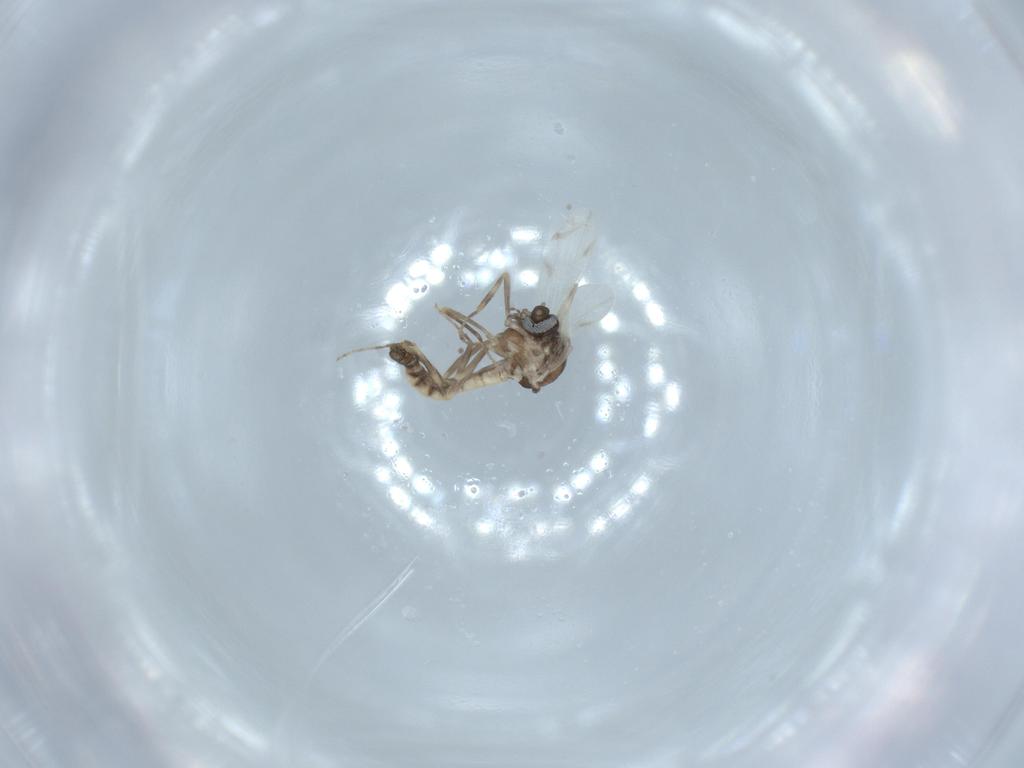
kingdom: Animalia
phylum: Arthropoda
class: Insecta
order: Diptera
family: Ceratopogonidae
